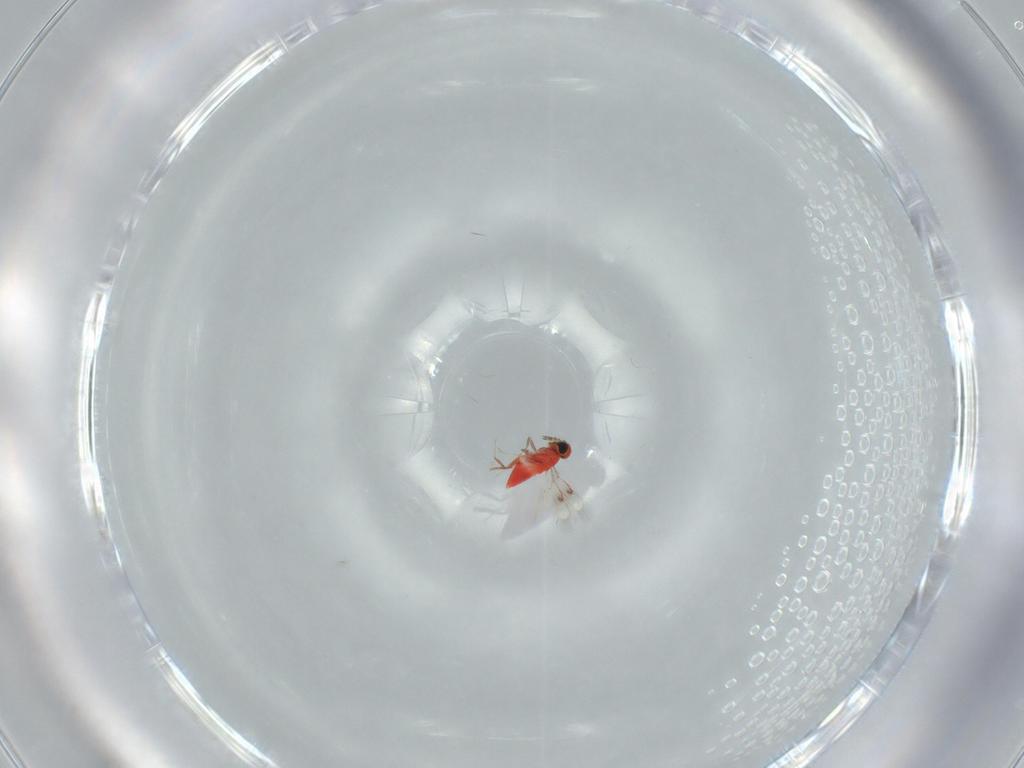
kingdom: Animalia
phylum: Arthropoda
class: Insecta
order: Hymenoptera
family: Trichogrammatidae
